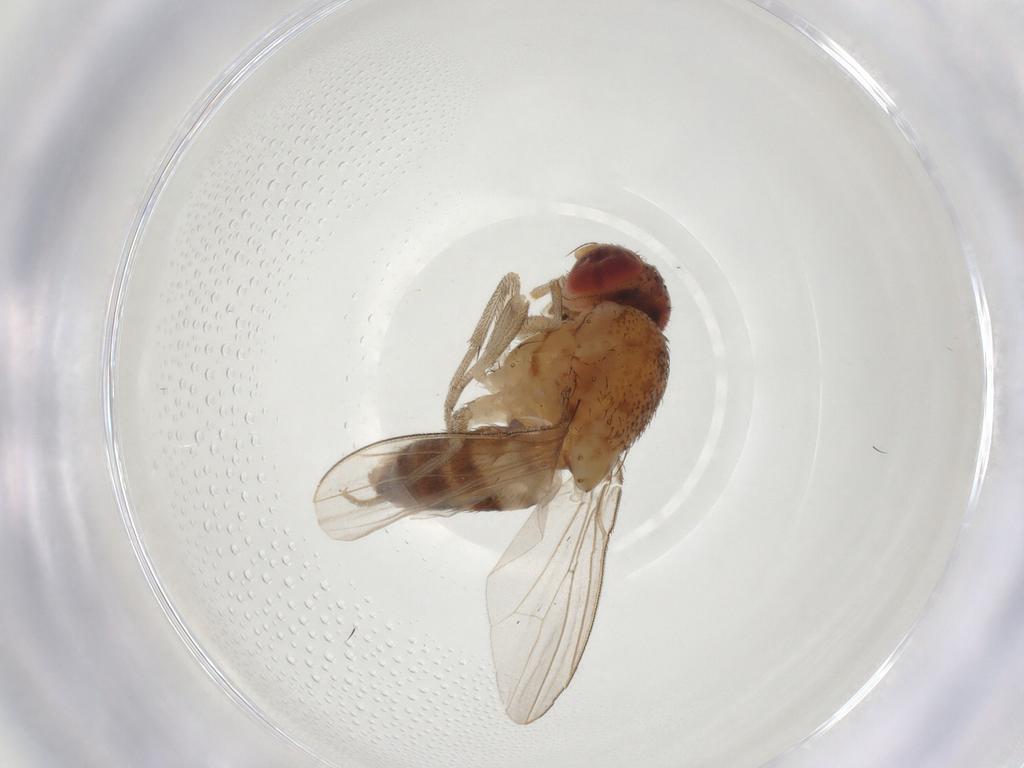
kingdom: Animalia
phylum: Arthropoda
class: Insecta
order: Diptera
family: Drosophilidae
